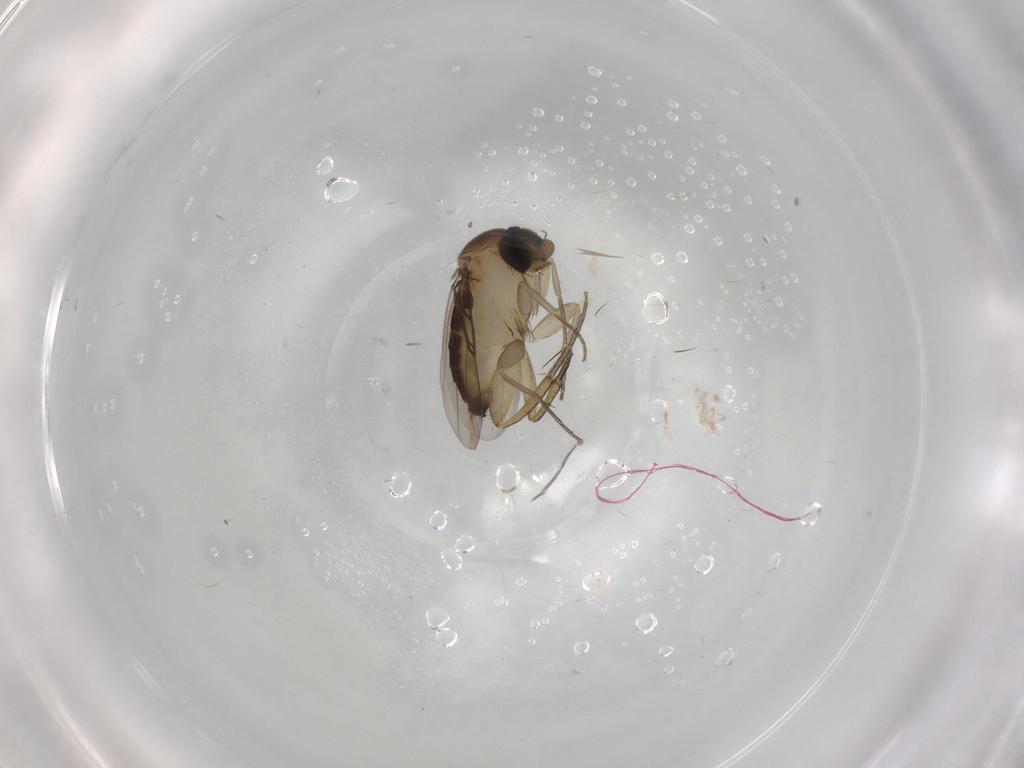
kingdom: Animalia
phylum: Arthropoda
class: Insecta
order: Diptera
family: Phoridae
